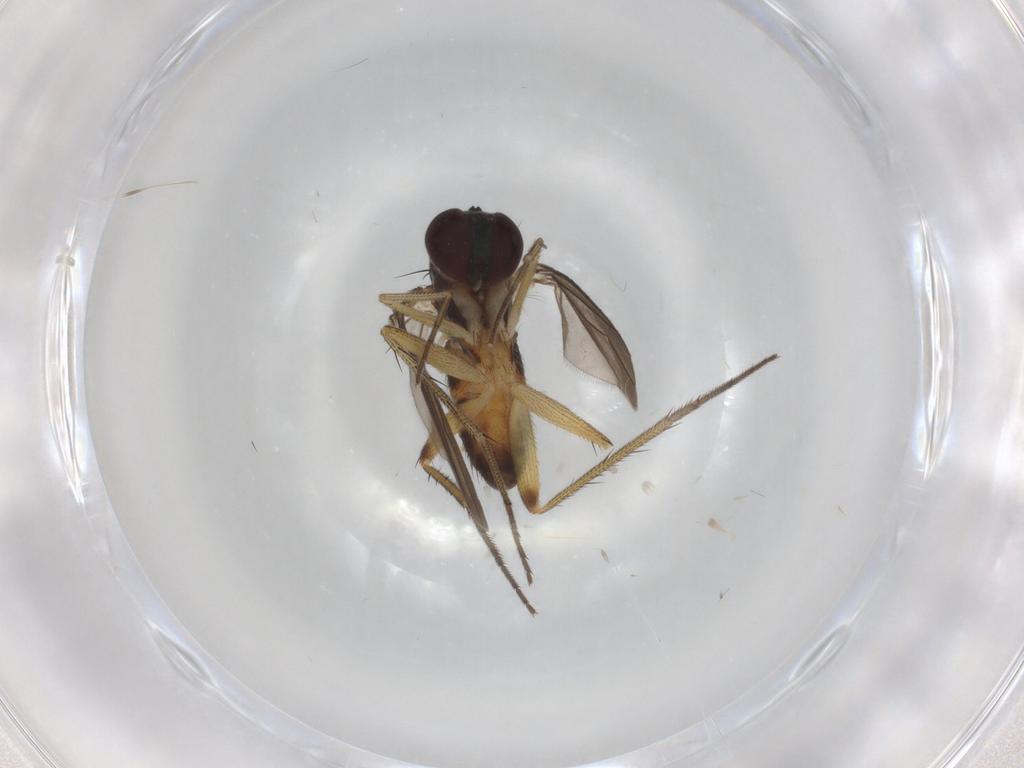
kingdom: Animalia
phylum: Arthropoda
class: Insecta
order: Diptera
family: Dolichopodidae
